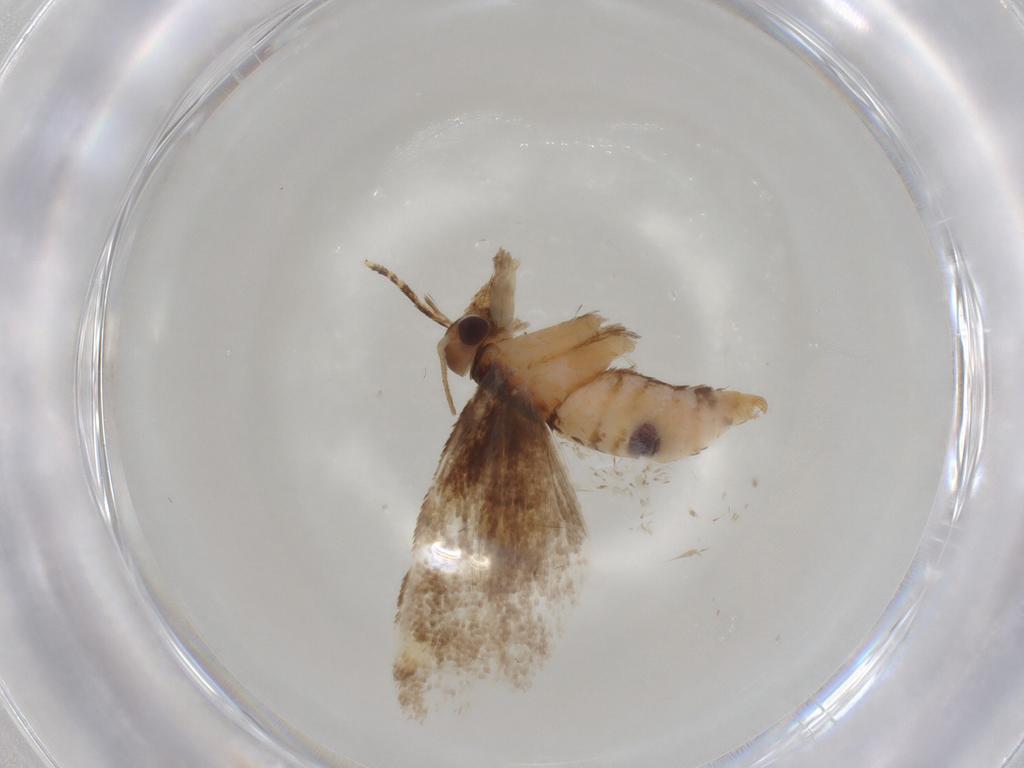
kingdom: Animalia
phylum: Arthropoda
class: Insecta
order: Lepidoptera
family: Oecophoridae
